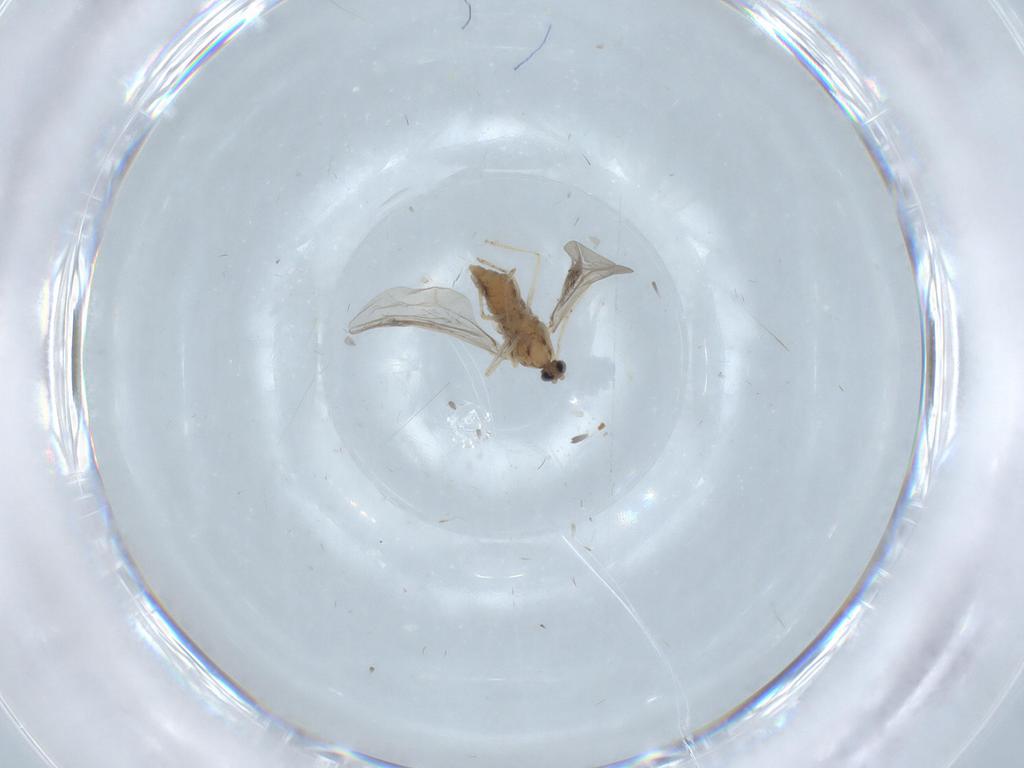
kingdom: Animalia
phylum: Arthropoda
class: Insecta
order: Diptera
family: Cecidomyiidae
